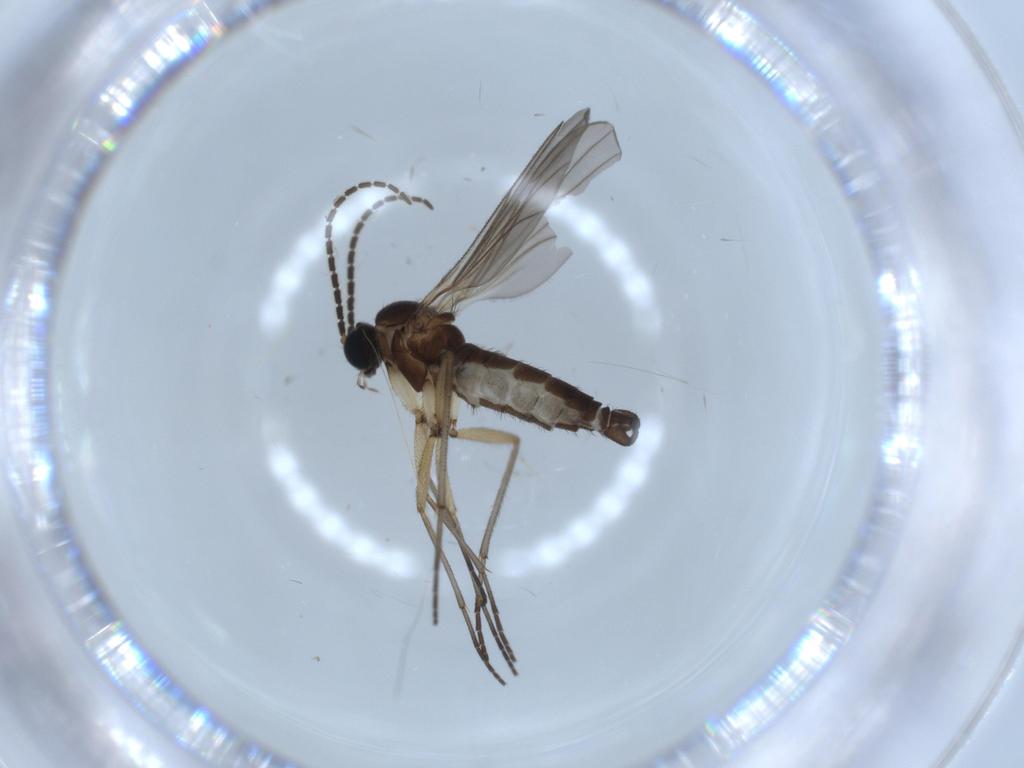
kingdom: Animalia
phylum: Arthropoda
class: Insecta
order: Diptera
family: Sciaridae
